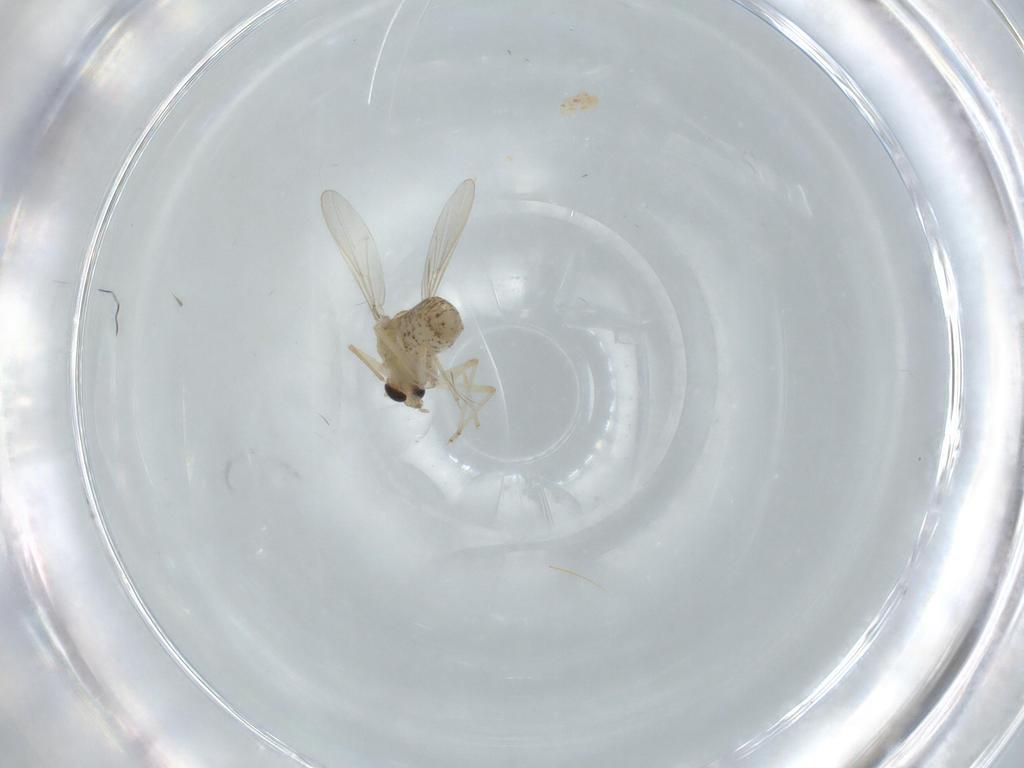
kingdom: Animalia
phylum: Arthropoda
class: Insecta
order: Diptera
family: Chironomidae
